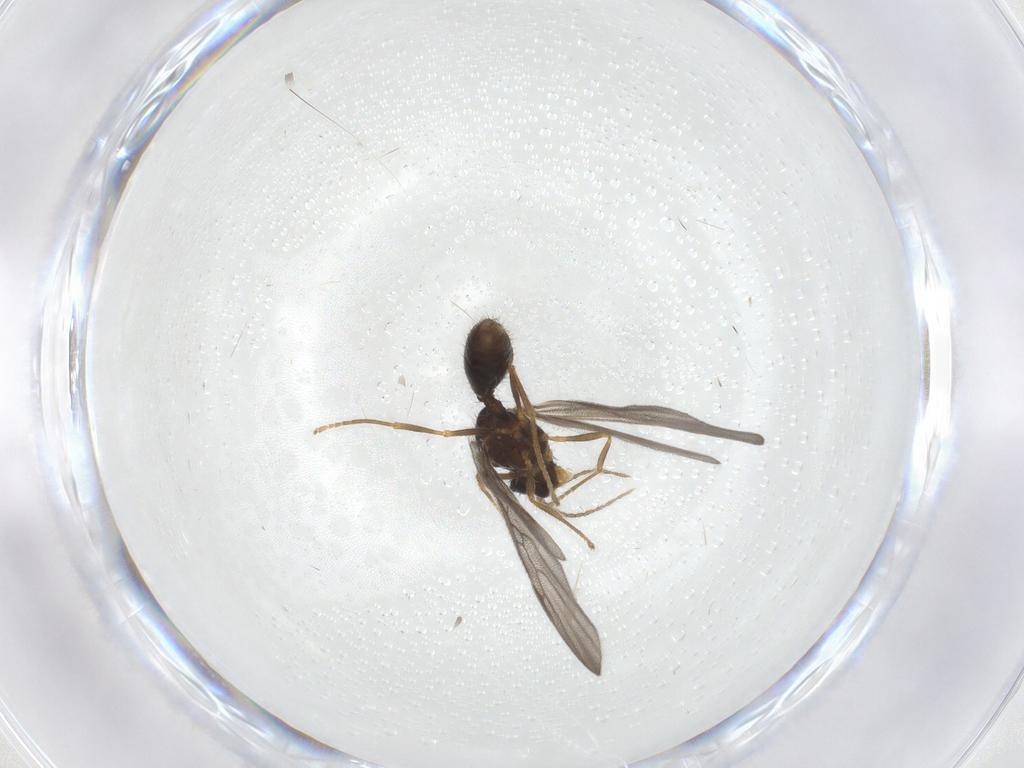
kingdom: Animalia
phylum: Arthropoda
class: Insecta
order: Hymenoptera
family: Formicidae
